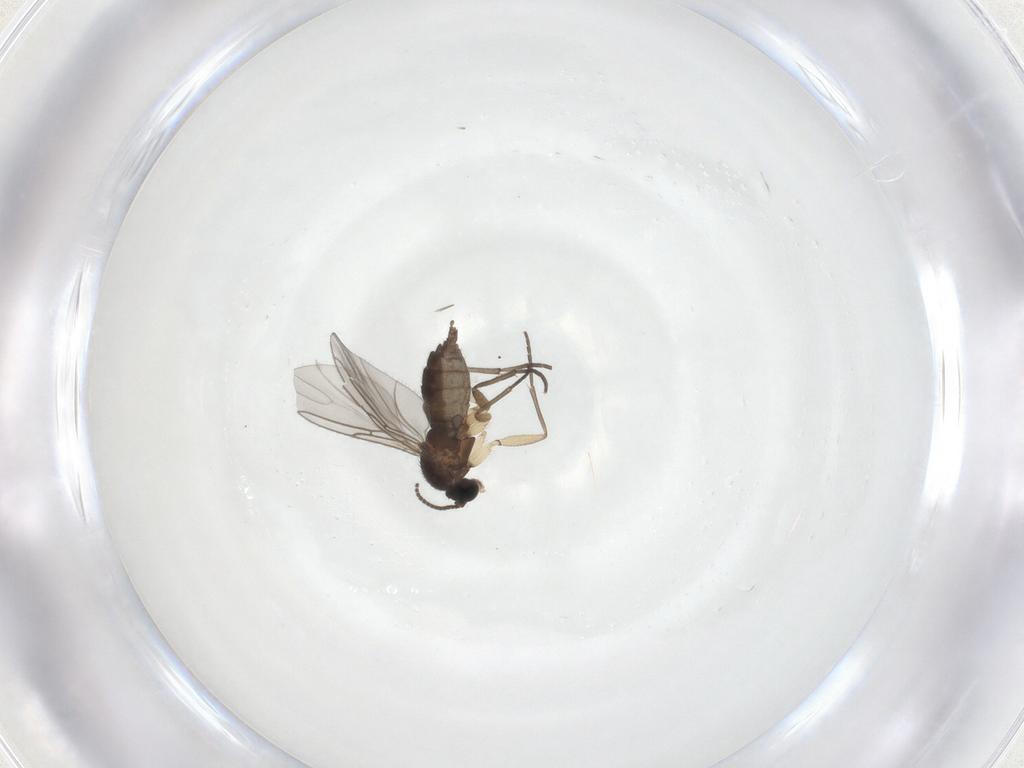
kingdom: Animalia
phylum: Arthropoda
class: Insecta
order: Diptera
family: Sciaridae
